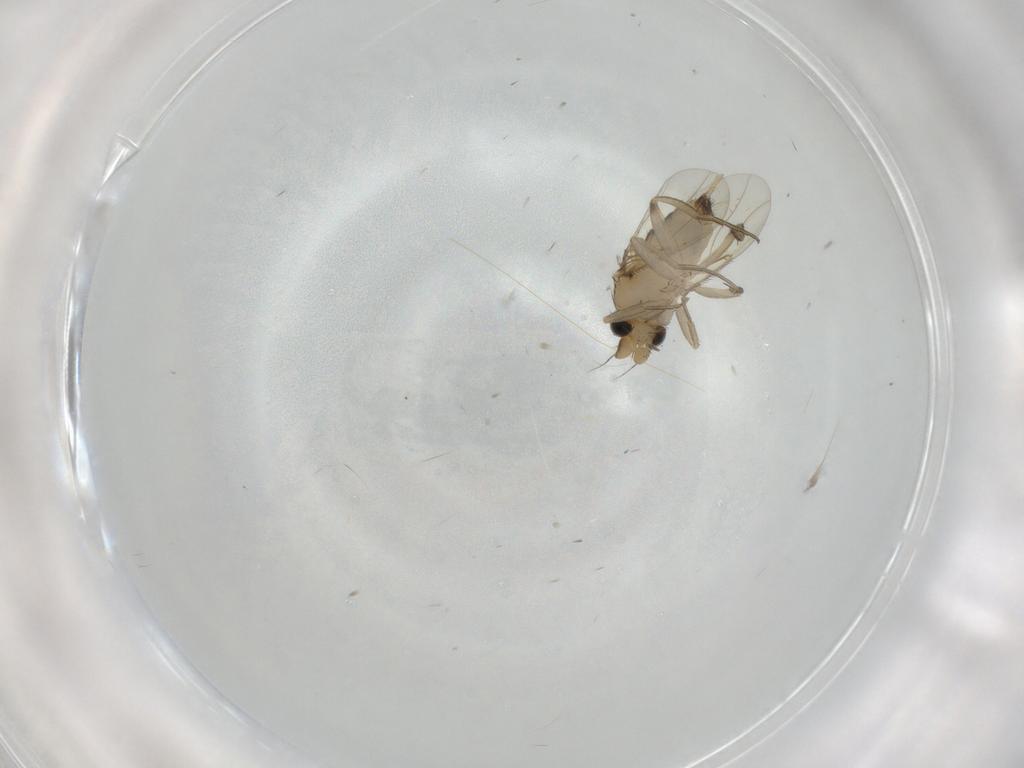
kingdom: Animalia
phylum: Arthropoda
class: Insecta
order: Diptera
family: Phoridae
